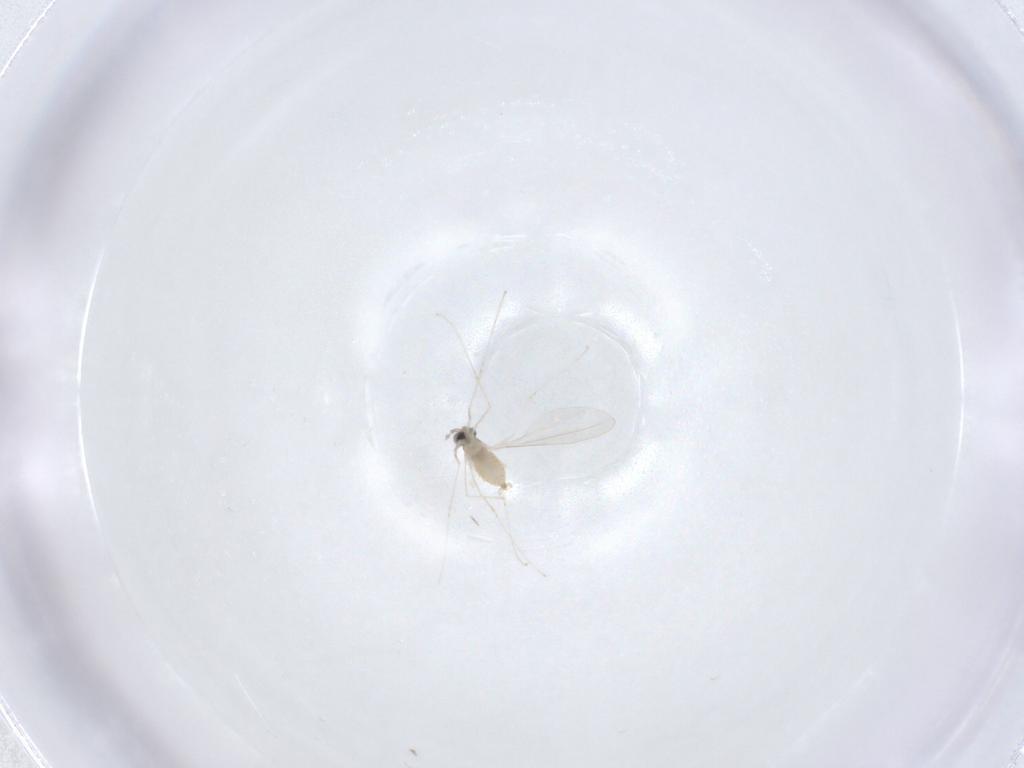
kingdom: Animalia
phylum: Arthropoda
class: Insecta
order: Diptera
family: Cecidomyiidae
